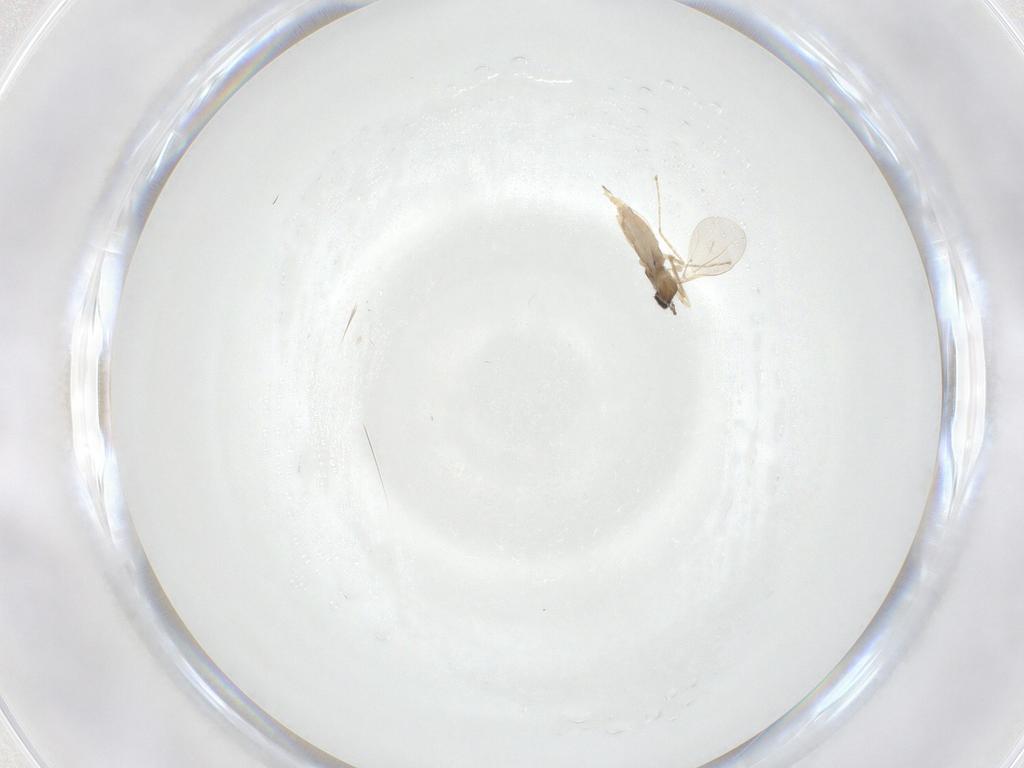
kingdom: Animalia
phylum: Arthropoda
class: Insecta
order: Diptera
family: Cecidomyiidae
